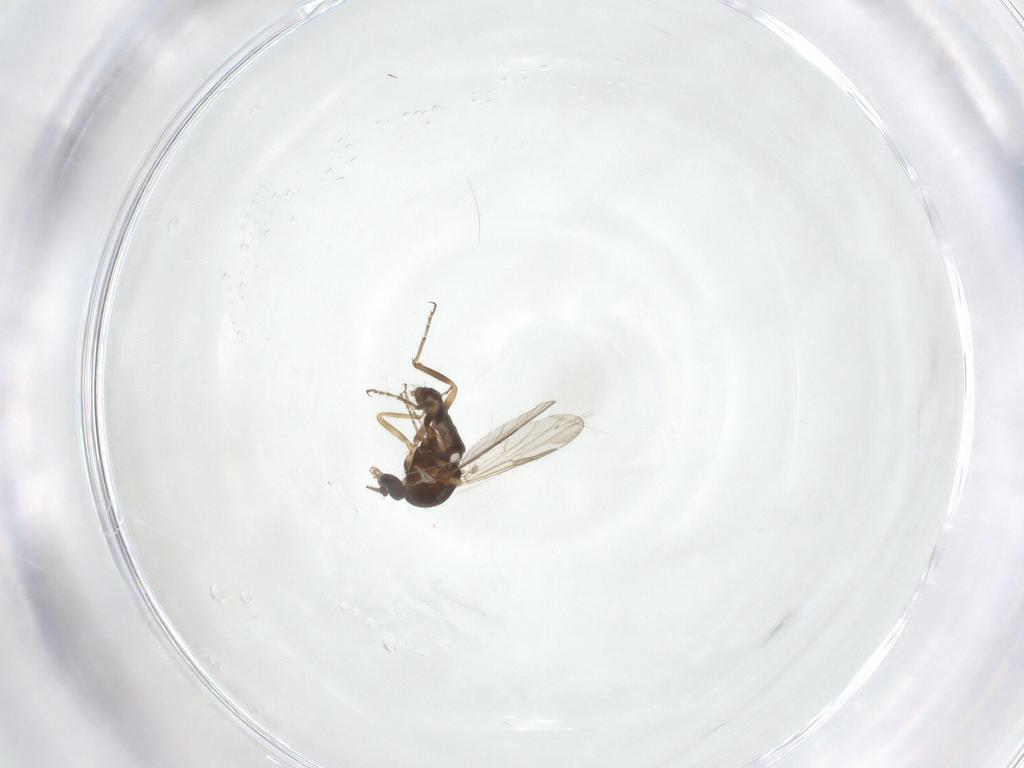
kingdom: Animalia
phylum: Arthropoda
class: Insecta
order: Diptera
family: Ceratopogonidae
